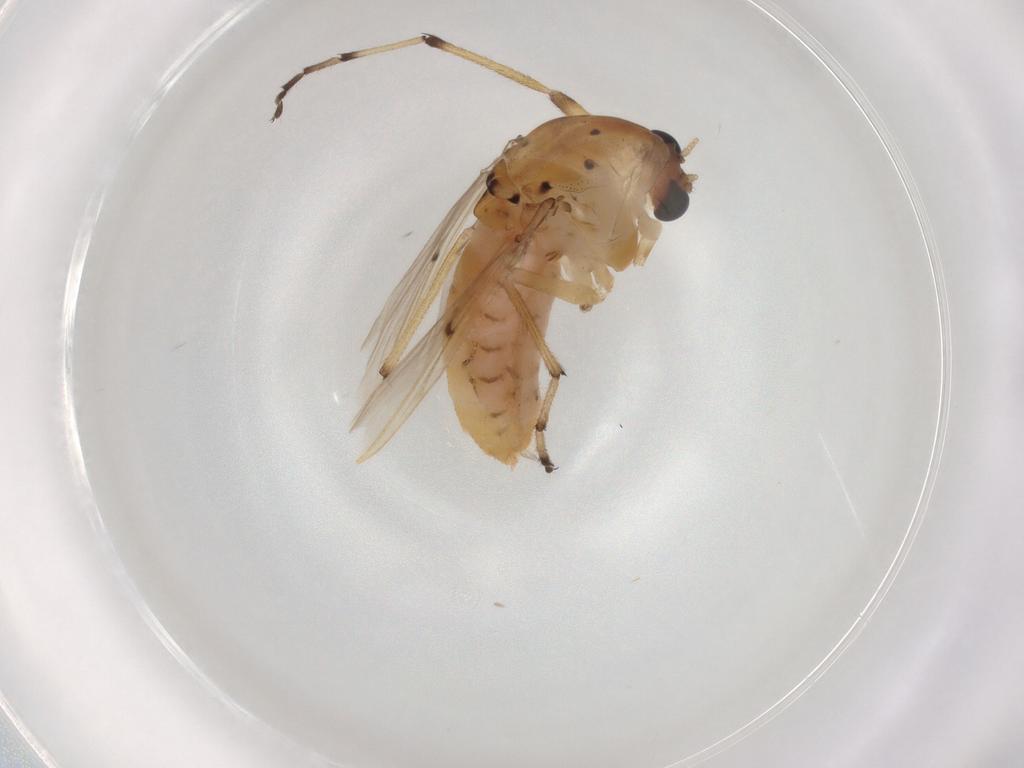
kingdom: Animalia
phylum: Arthropoda
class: Insecta
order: Diptera
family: Chironomidae
